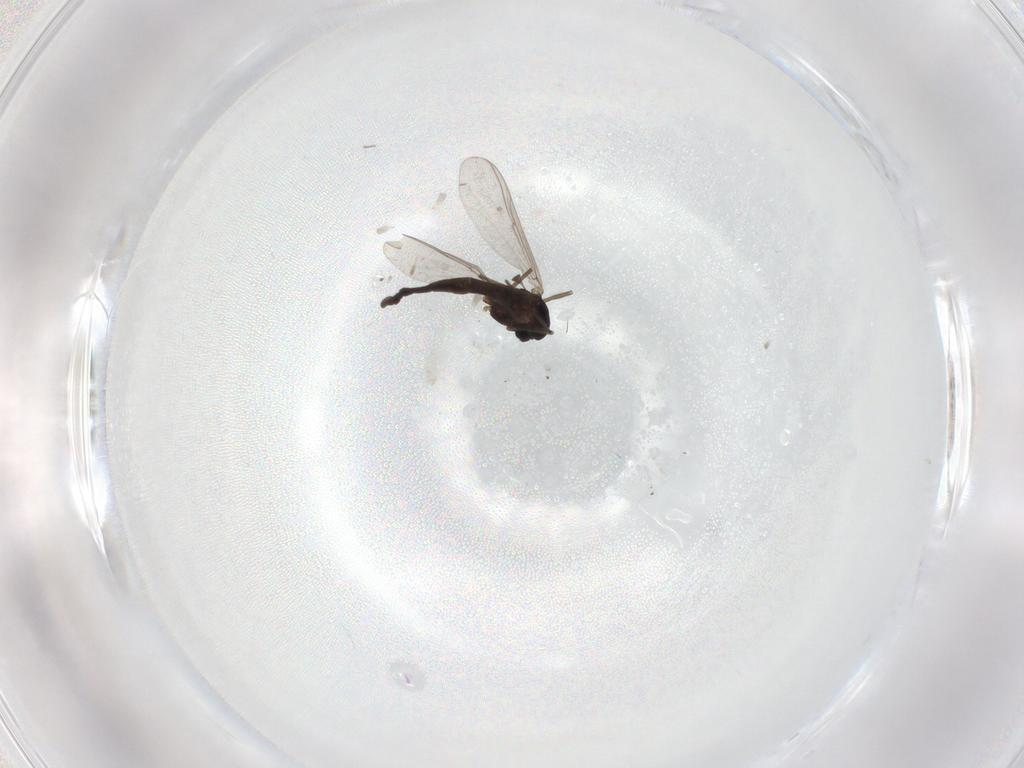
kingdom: Animalia
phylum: Arthropoda
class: Insecta
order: Diptera
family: Chironomidae
